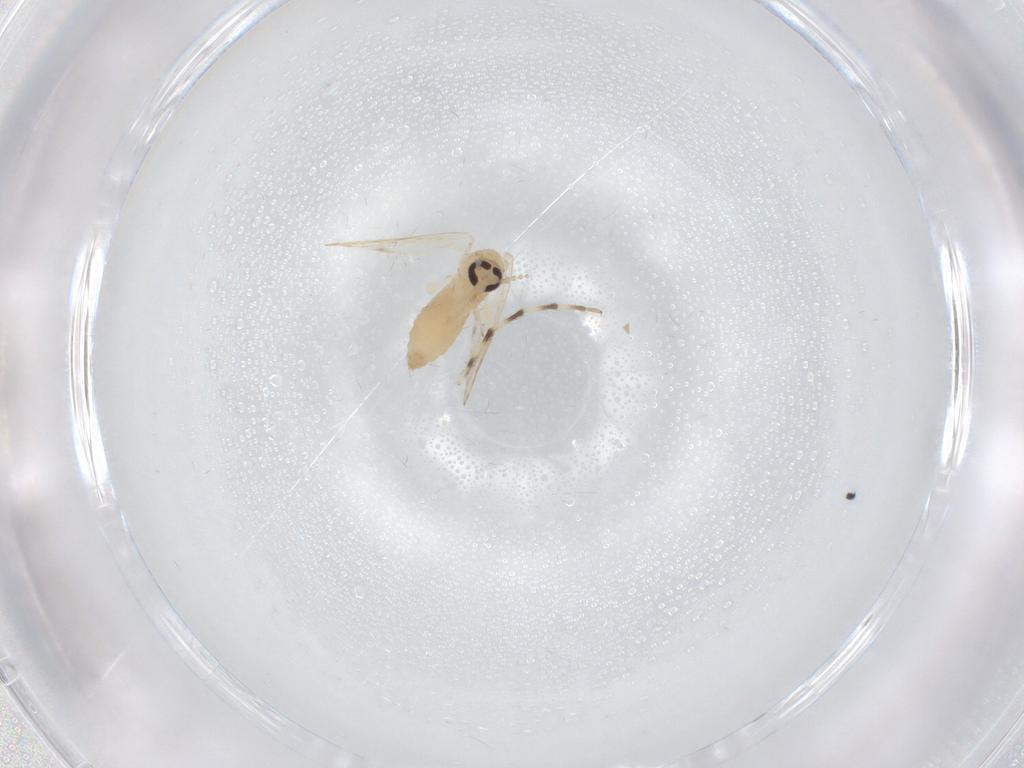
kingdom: Animalia
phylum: Arthropoda
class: Insecta
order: Diptera
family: Psychodidae
